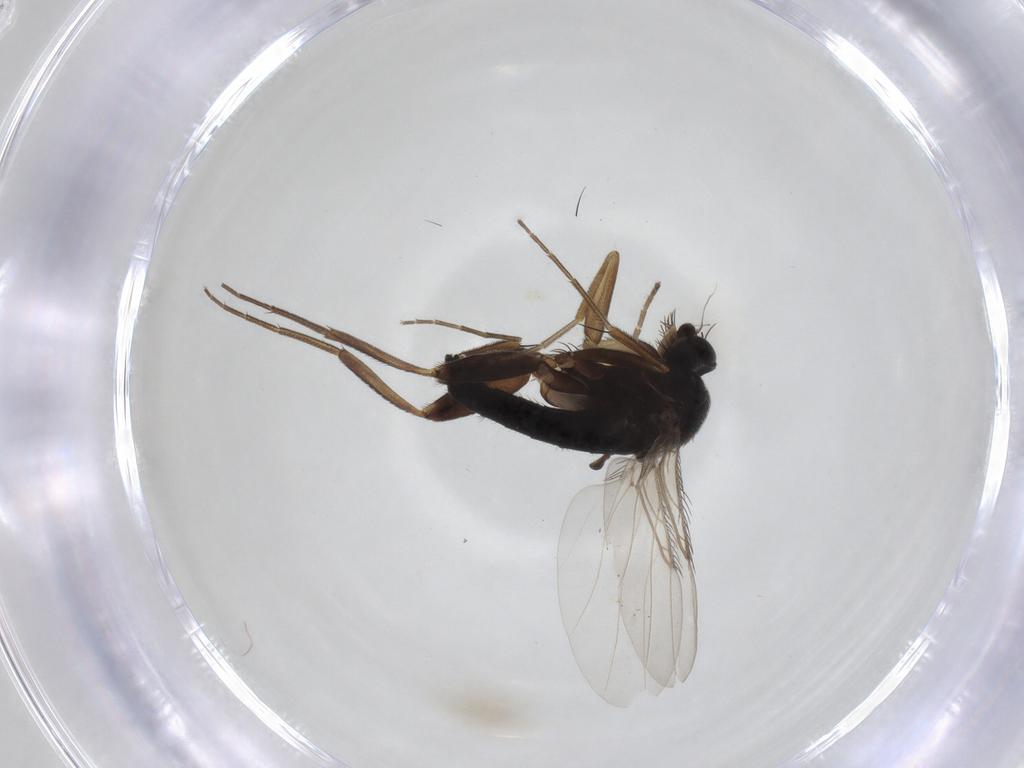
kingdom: Animalia
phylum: Arthropoda
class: Insecta
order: Diptera
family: Phoridae
